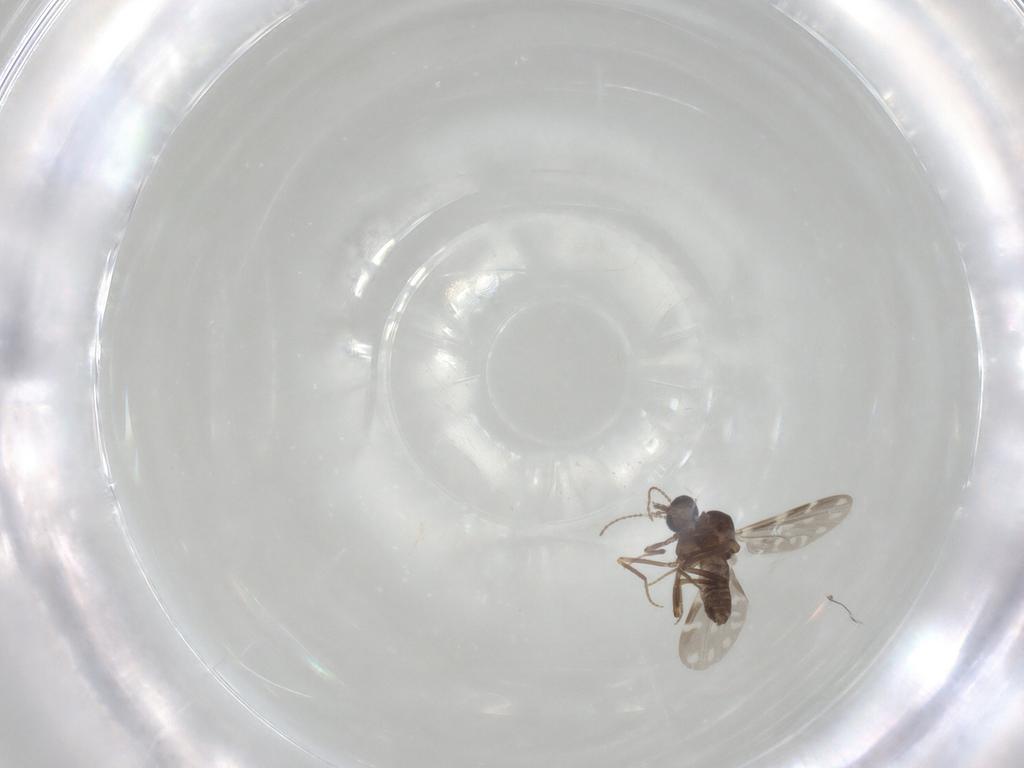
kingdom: Animalia
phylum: Arthropoda
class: Insecta
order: Diptera
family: Ceratopogonidae
